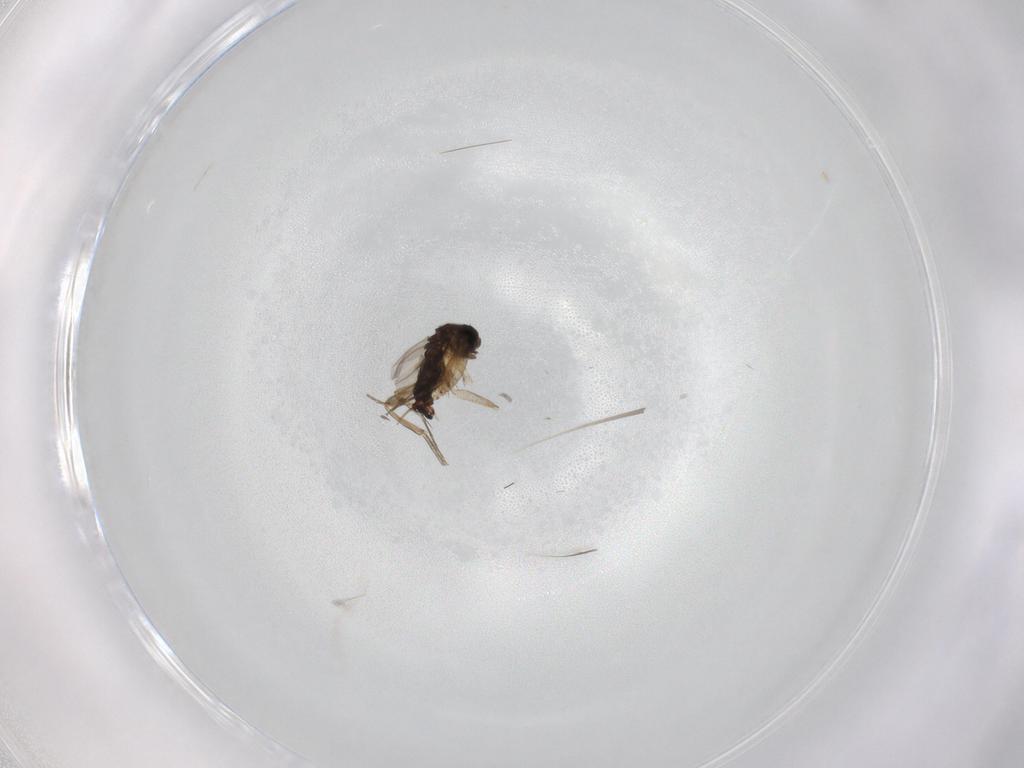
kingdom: Animalia
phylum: Arthropoda
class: Insecta
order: Diptera
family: Phoridae
